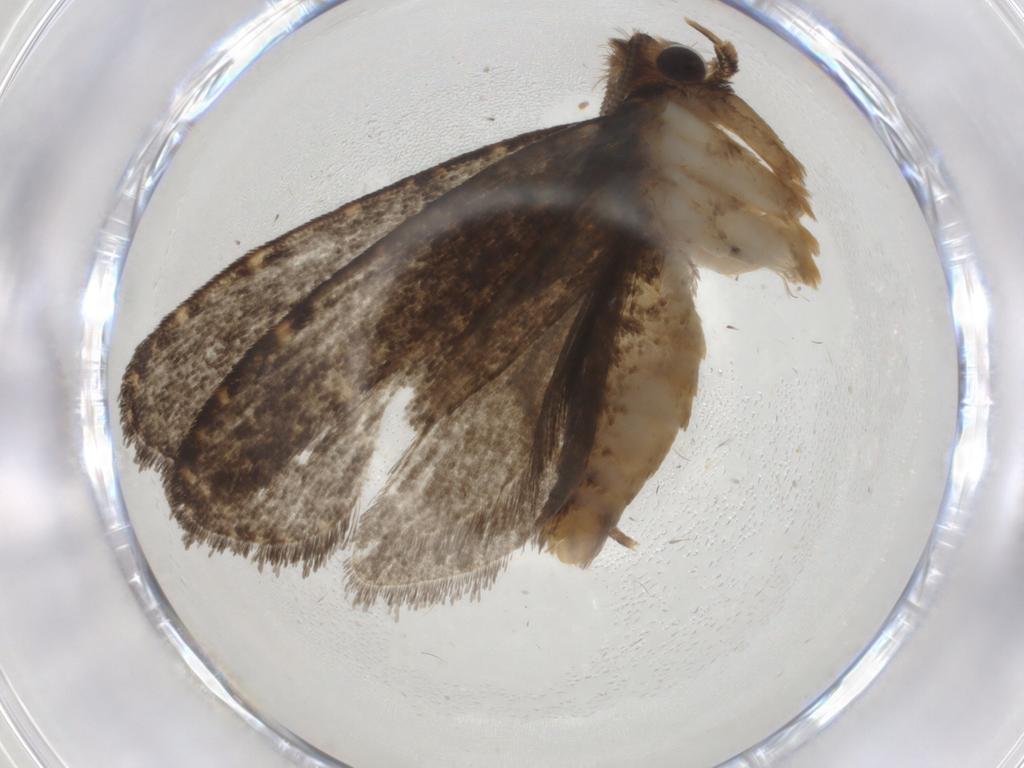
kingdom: Animalia
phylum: Arthropoda
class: Insecta
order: Lepidoptera
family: Tineidae
